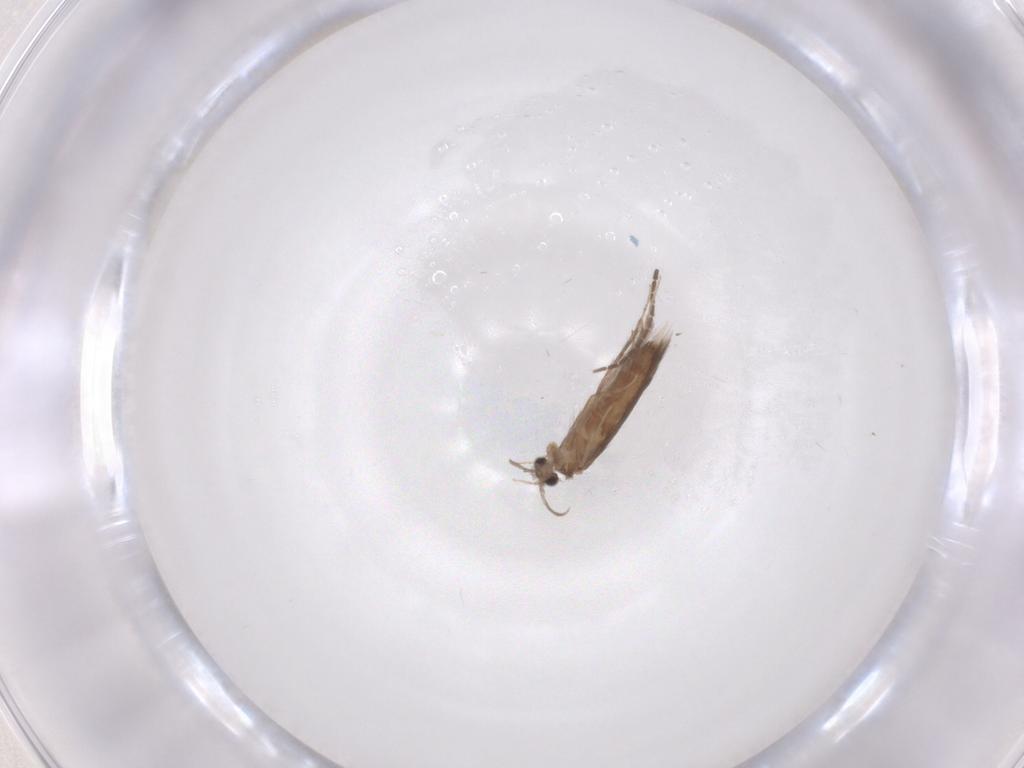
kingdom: Animalia
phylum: Arthropoda
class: Insecta
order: Trichoptera
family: Hydroptilidae
